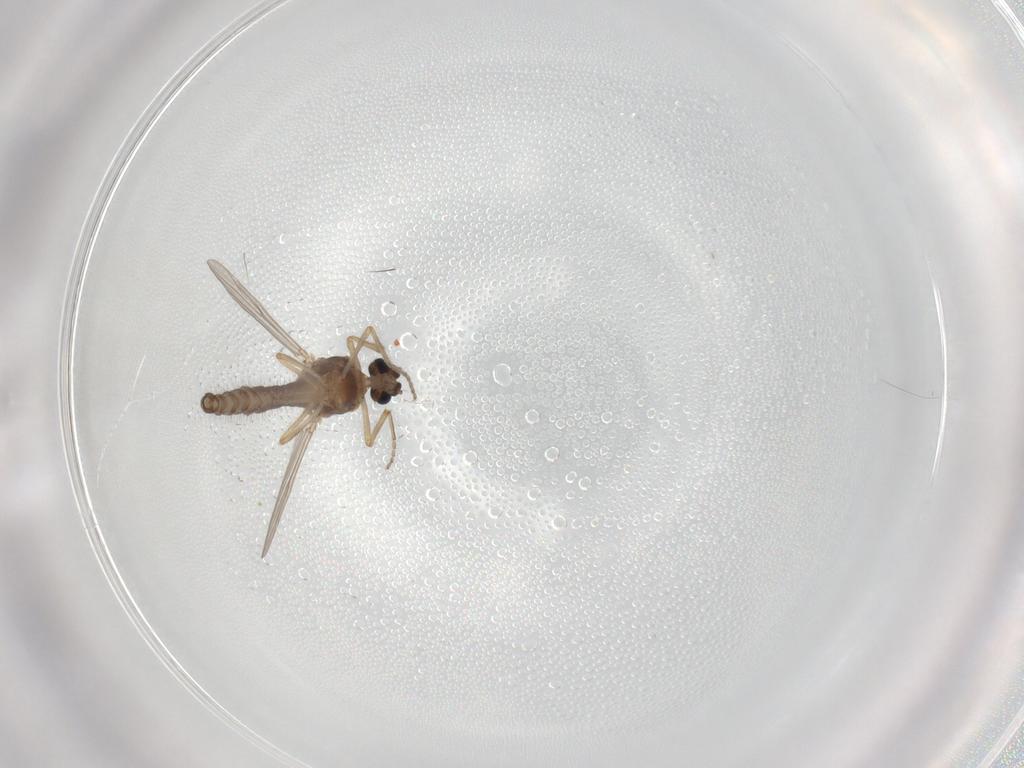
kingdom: Animalia
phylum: Arthropoda
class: Insecta
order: Diptera
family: Ceratopogonidae
